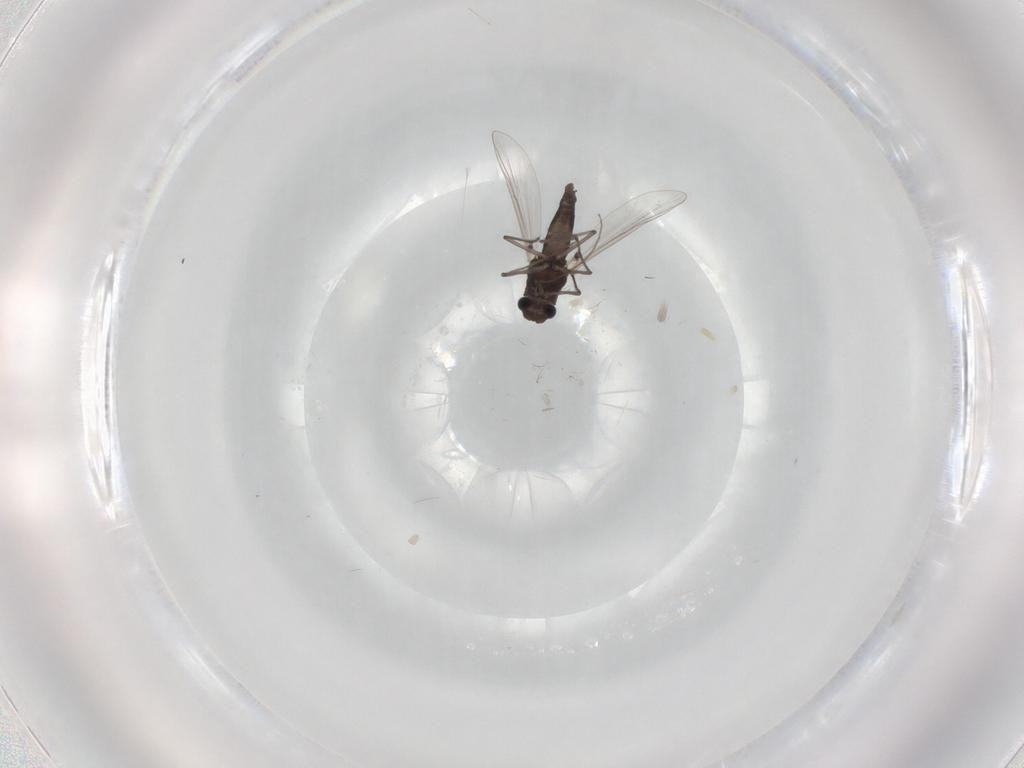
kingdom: Animalia
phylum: Arthropoda
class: Insecta
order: Diptera
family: Chironomidae
